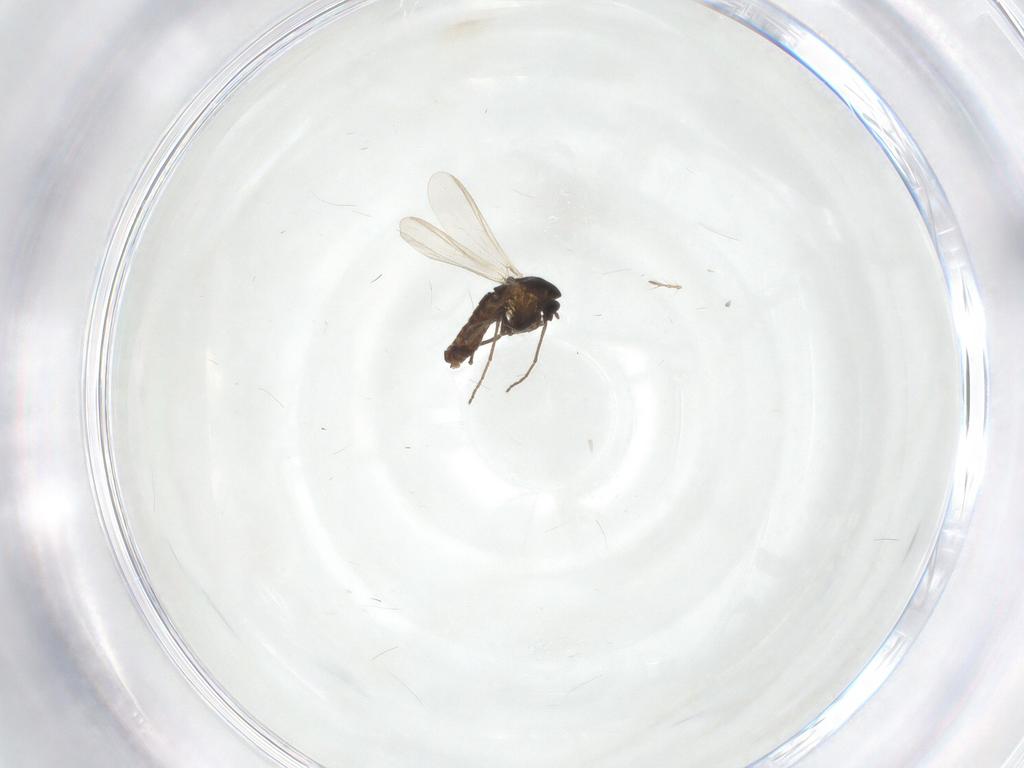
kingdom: Animalia
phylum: Arthropoda
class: Insecta
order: Diptera
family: Chironomidae
